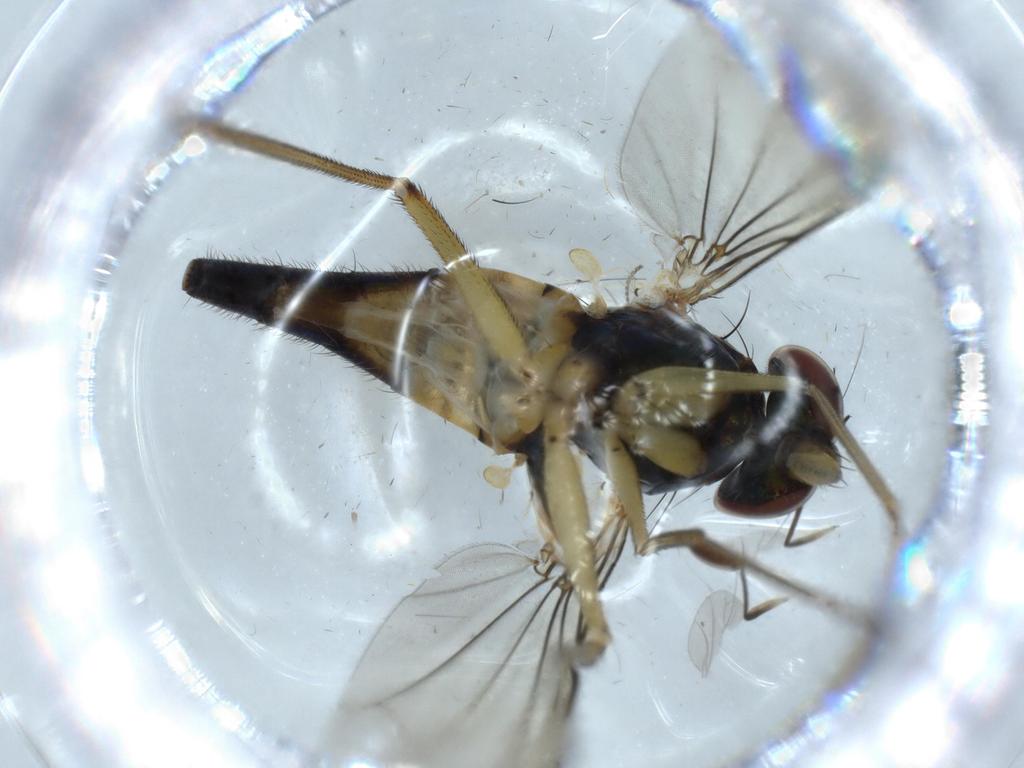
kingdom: Animalia
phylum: Arthropoda
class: Insecta
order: Diptera
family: Dolichopodidae
